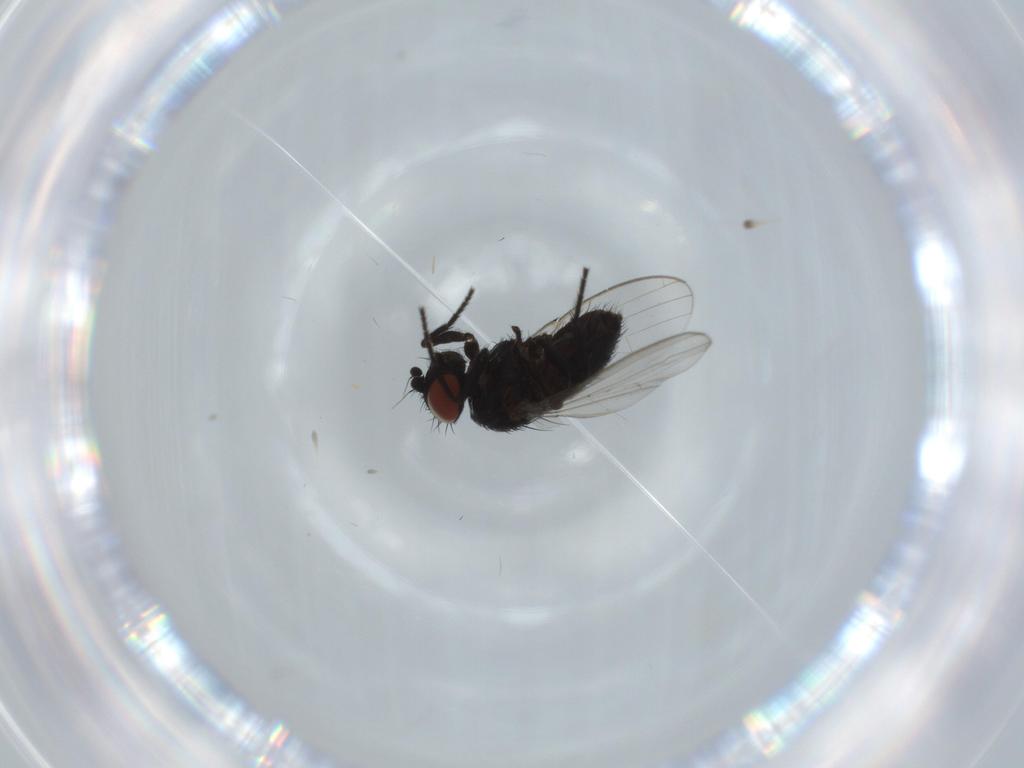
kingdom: Animalia
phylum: Arthropoda
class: Insecta
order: Diptera
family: Milichiidae
